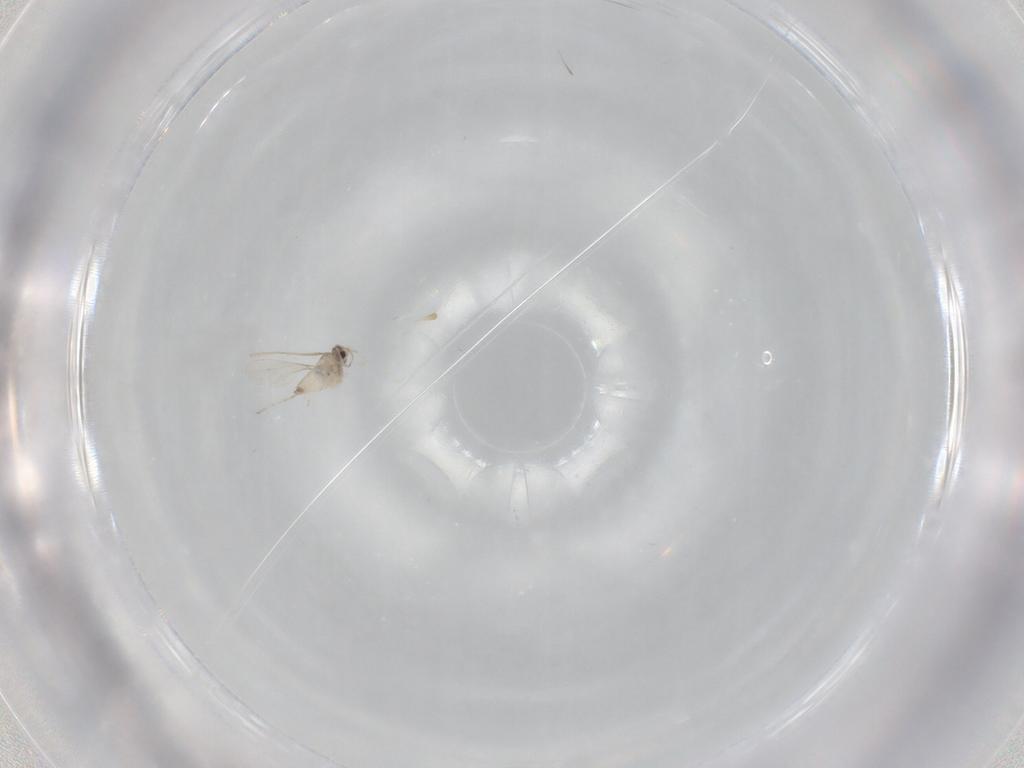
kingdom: Animalia
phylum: Arthropoda
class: Insecta
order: Diptera
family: Cecidomyiidae
